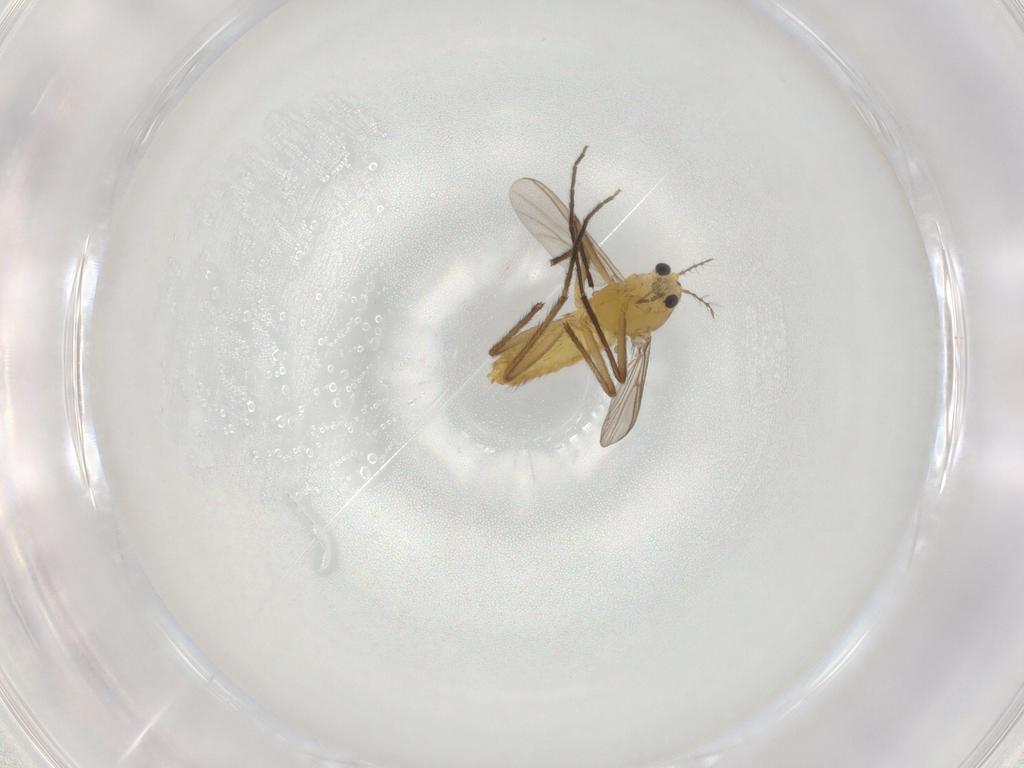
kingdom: Animalia
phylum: Arthropoda
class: Insecta
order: Diptera
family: Chironomidae
